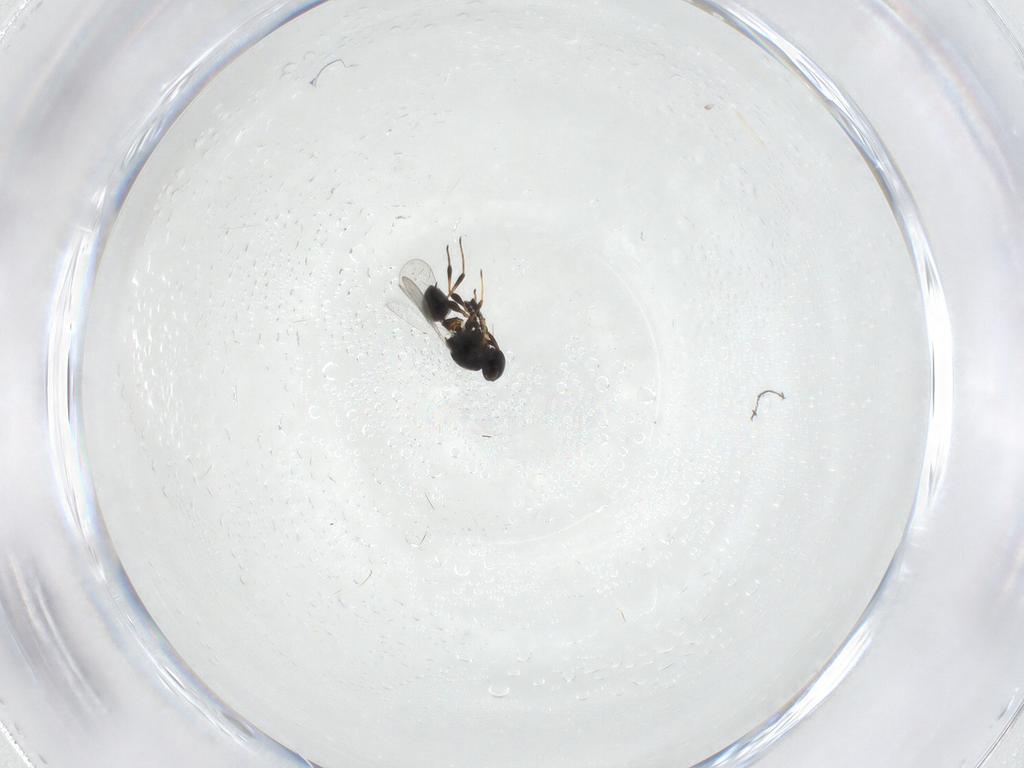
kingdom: Animalia
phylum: Arthropoda
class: Insecta
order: Hymenoptera
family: Platygastridae
